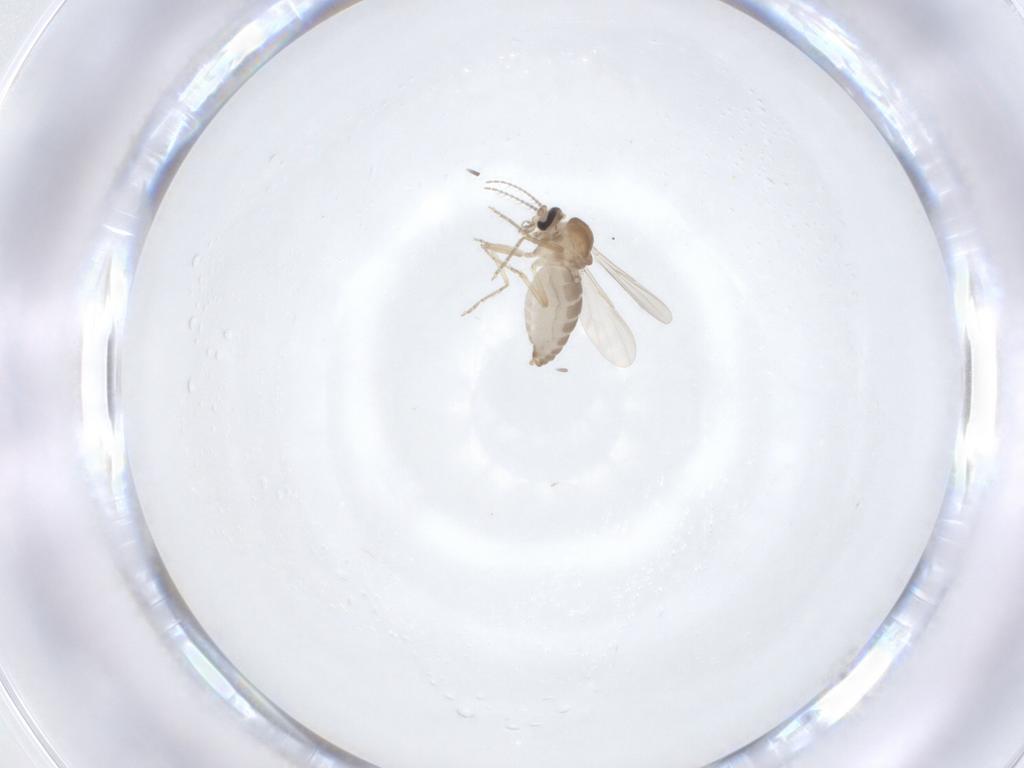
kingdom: Animalia
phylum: Arthropoda
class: Insecta
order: Diptera
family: Ceratopogonidae
